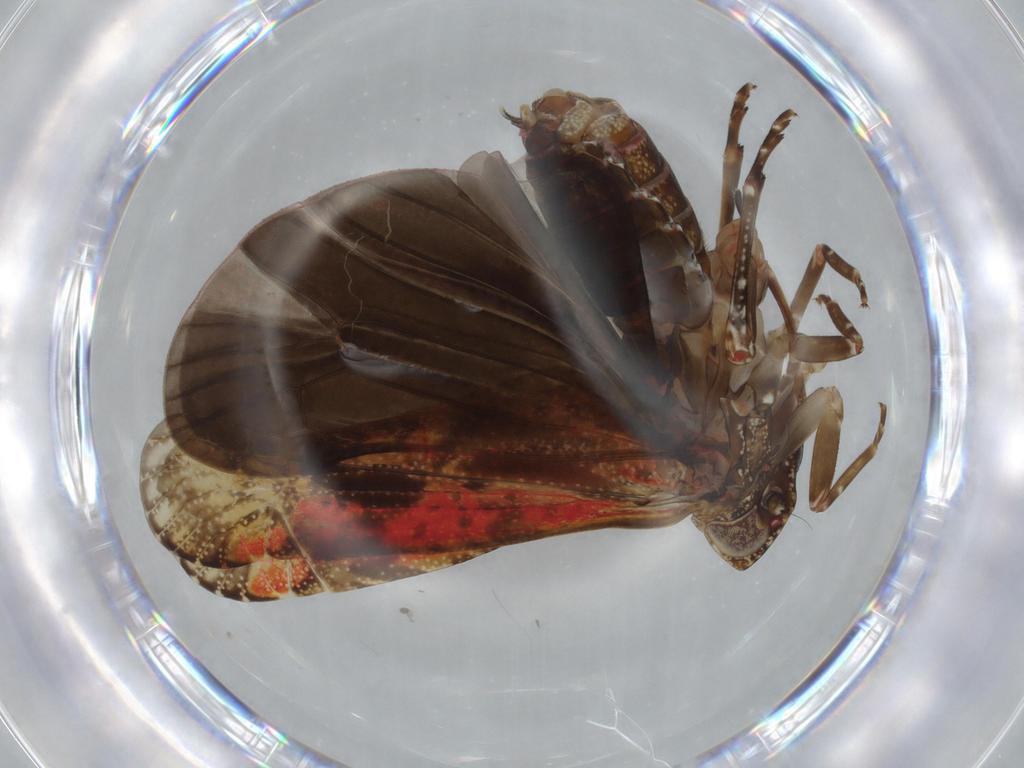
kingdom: Animalia
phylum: Arthropoda
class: Insecta
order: Hemiptera
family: Achilidae
